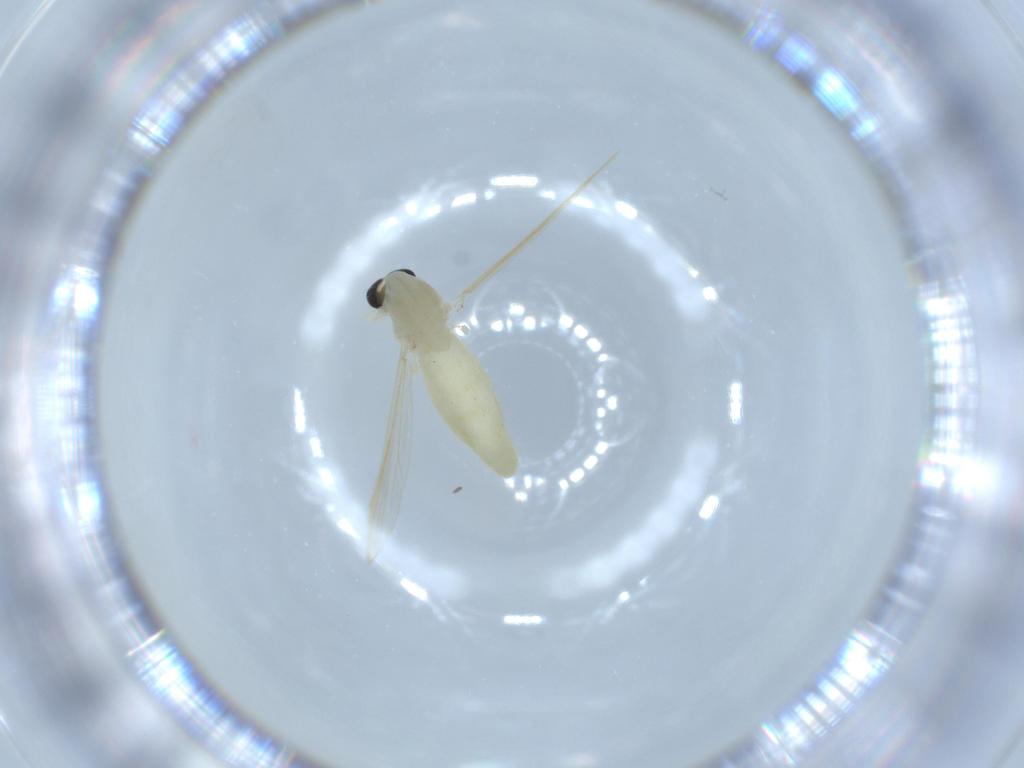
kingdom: Animalia
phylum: Arthropoda
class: Insecta
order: Diptera
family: Chironomidae
